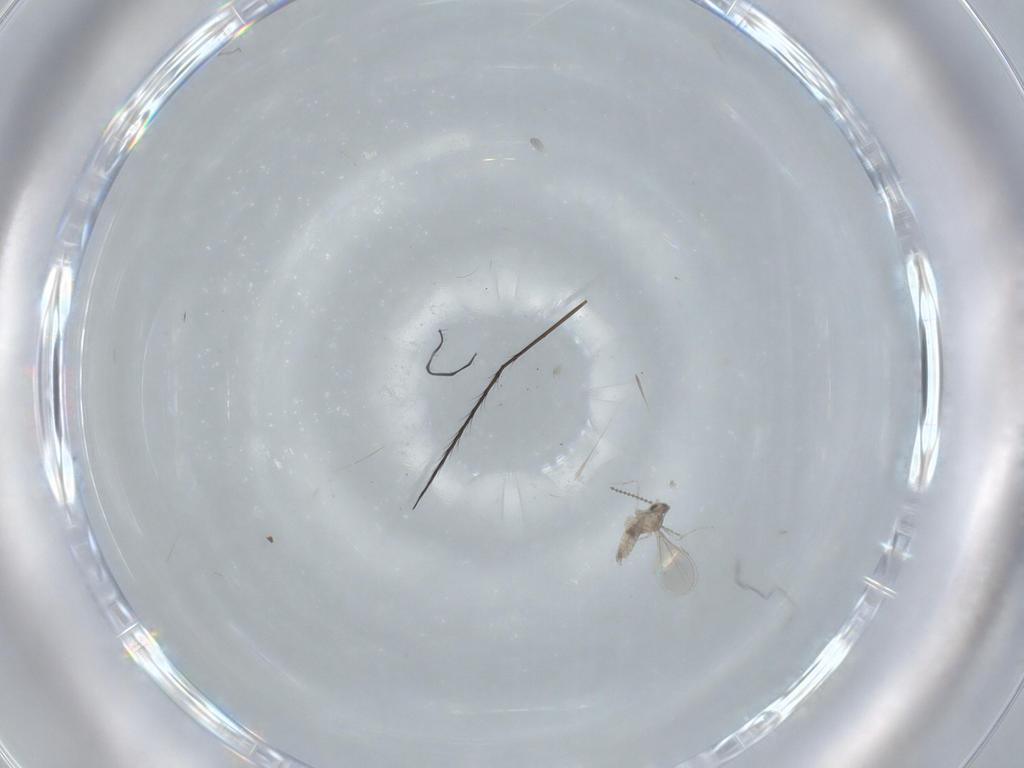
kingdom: Animalia
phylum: Arthropoda
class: Insecta
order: Diptera
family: Cecidomyiidae
